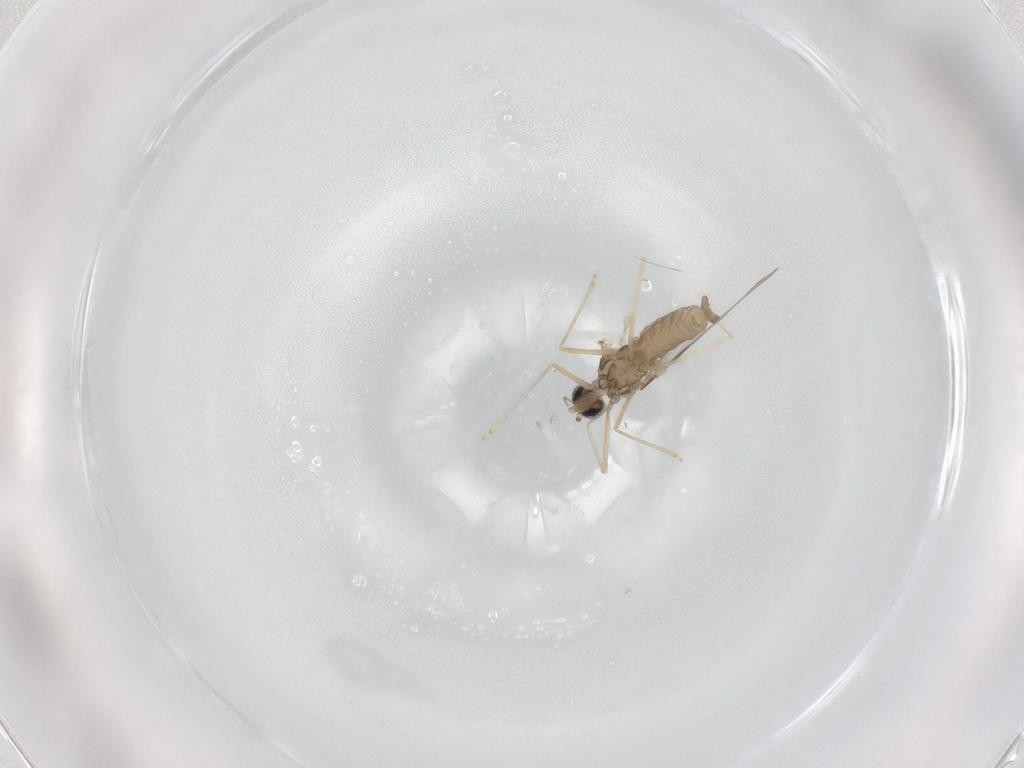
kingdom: Animalia
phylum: Arthropoda
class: Insecta
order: Diptera
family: Cecidomyiidae
